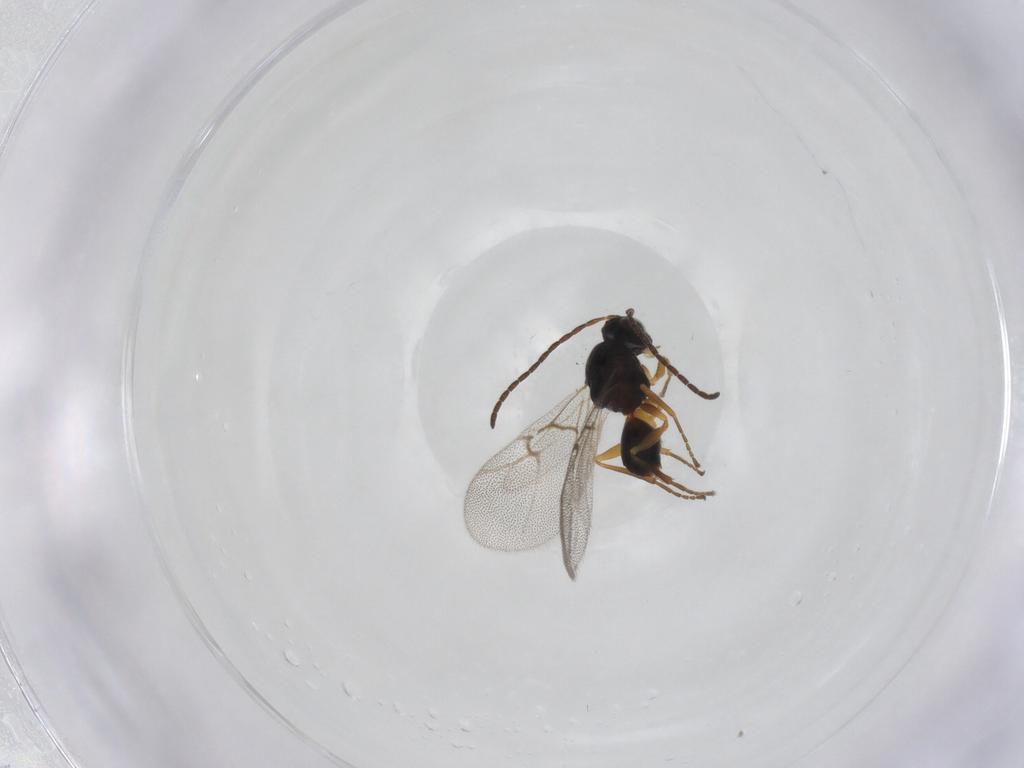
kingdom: Animalia
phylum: Arthropoda
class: Insecta
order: Hymenoptera
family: Cynipidae
